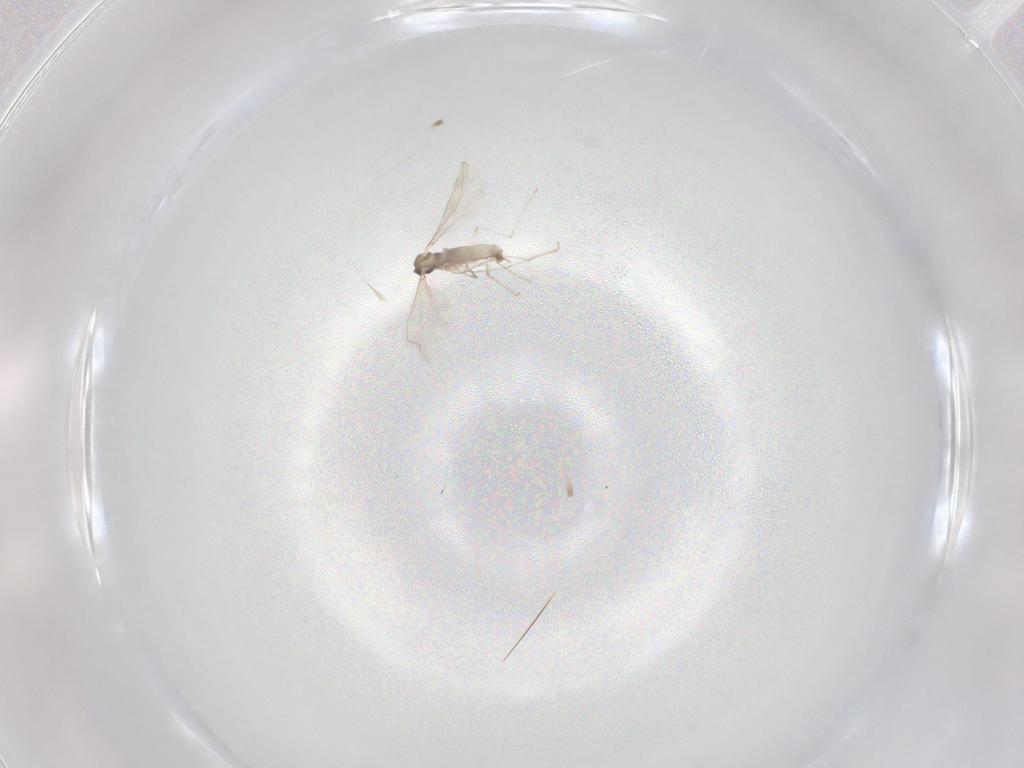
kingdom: Animalia
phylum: Arthropoda
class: Insecta
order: Diptera
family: Cecidomyiidae
